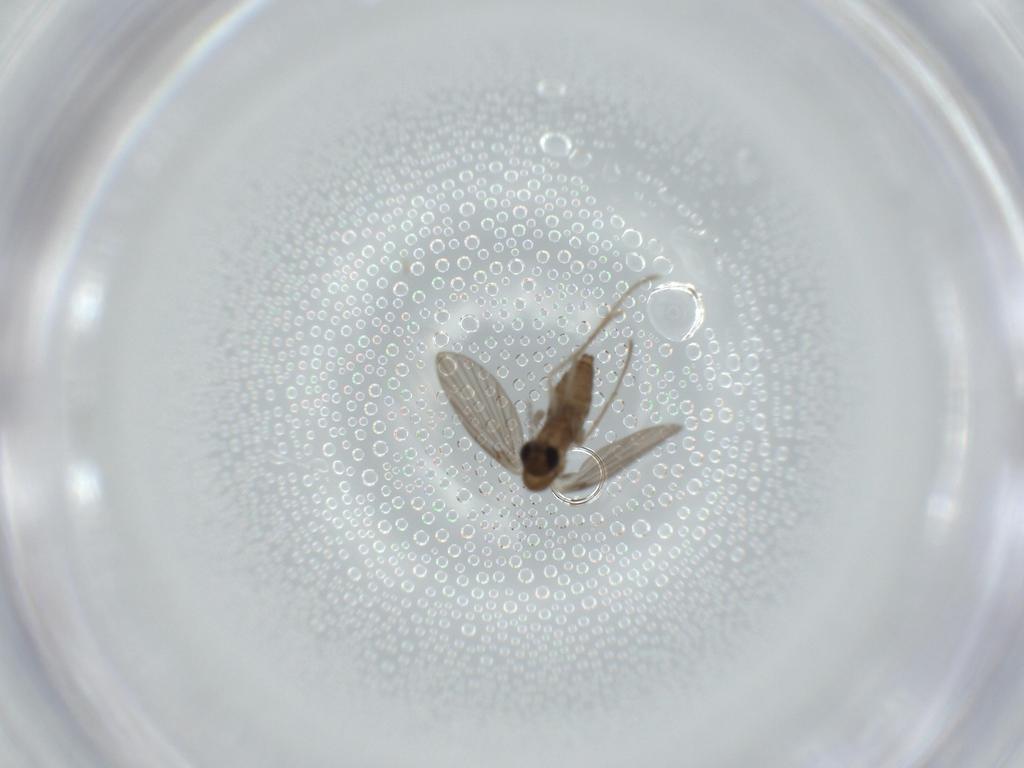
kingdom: Animalia
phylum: Arthropoda
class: Insecta
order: Diptera
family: Psychodidae
